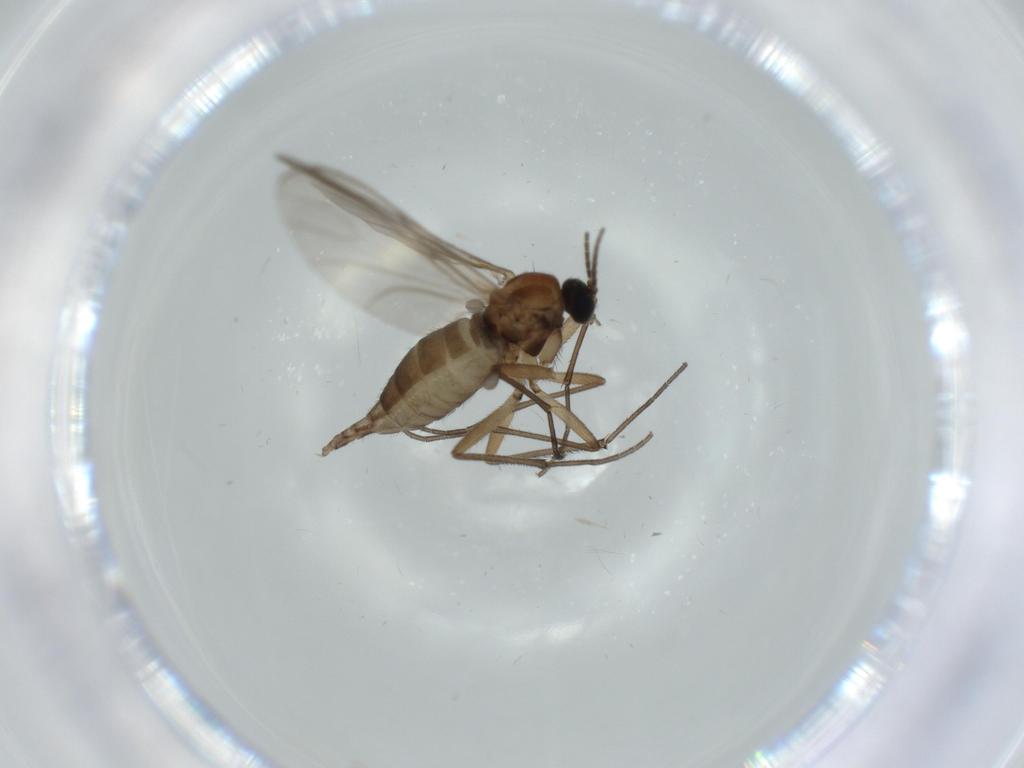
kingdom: Animalia
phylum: Arthropoda
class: Insecta
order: Diptera
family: Sciaridae
